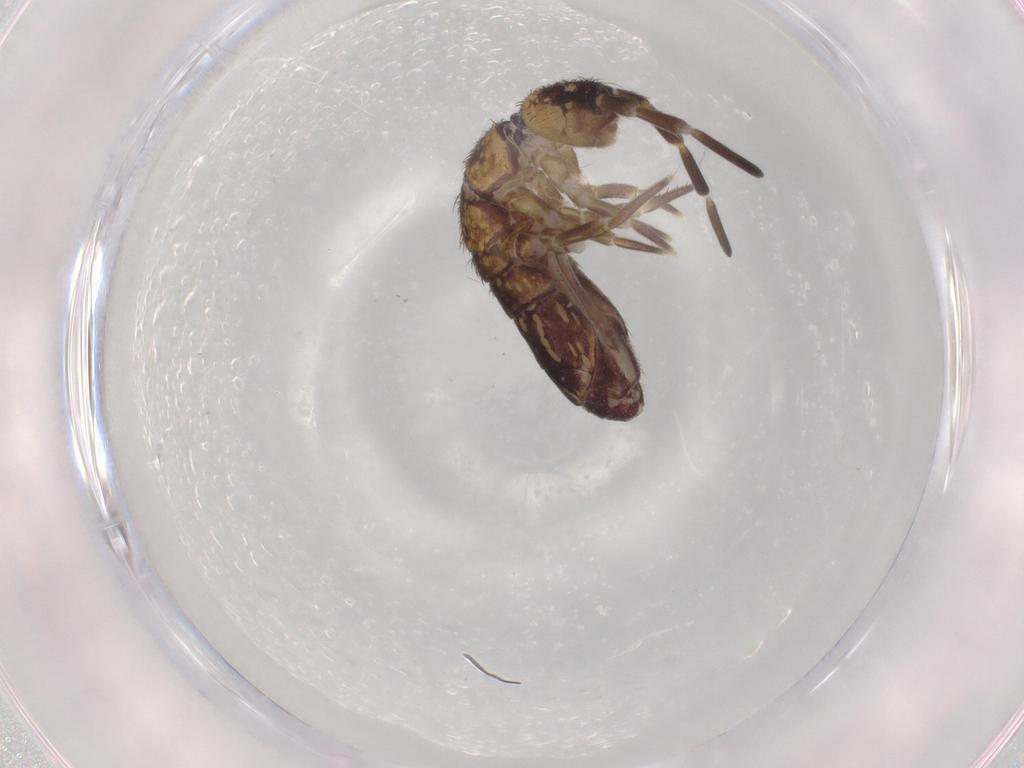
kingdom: Animalia
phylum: Arthropoda
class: Collembola
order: Entomobryomorpha
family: Isotomidae
